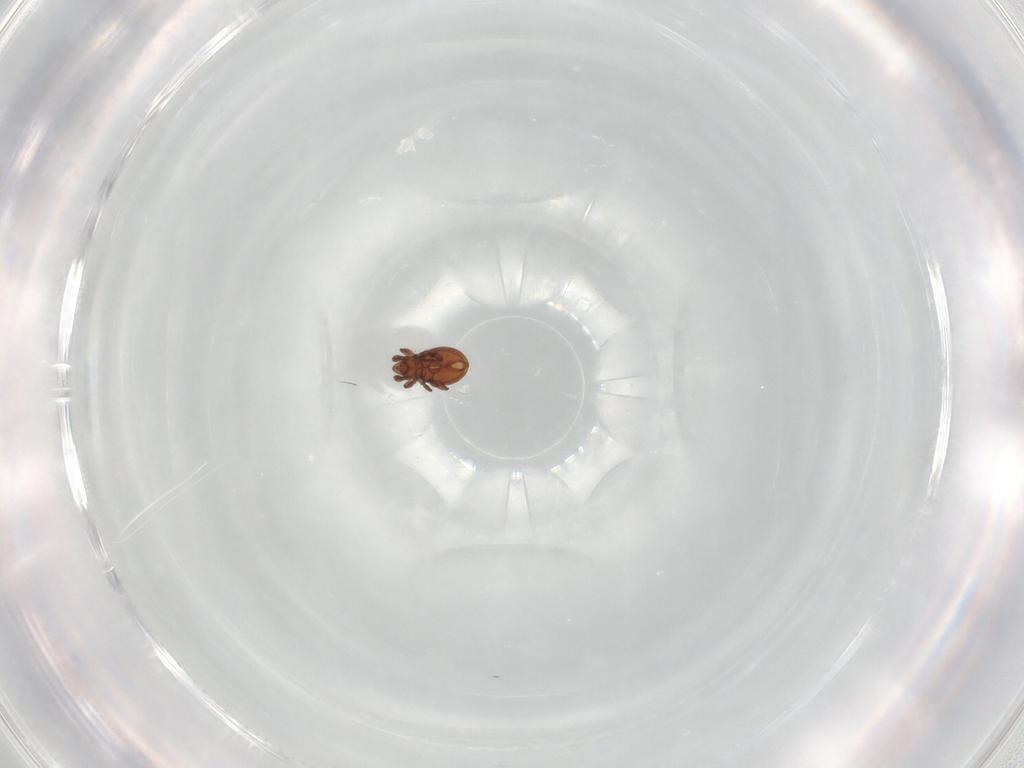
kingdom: Animalia
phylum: Arthropoda
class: Arachnida
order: Sarcoptiformes
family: Eremaeidae
